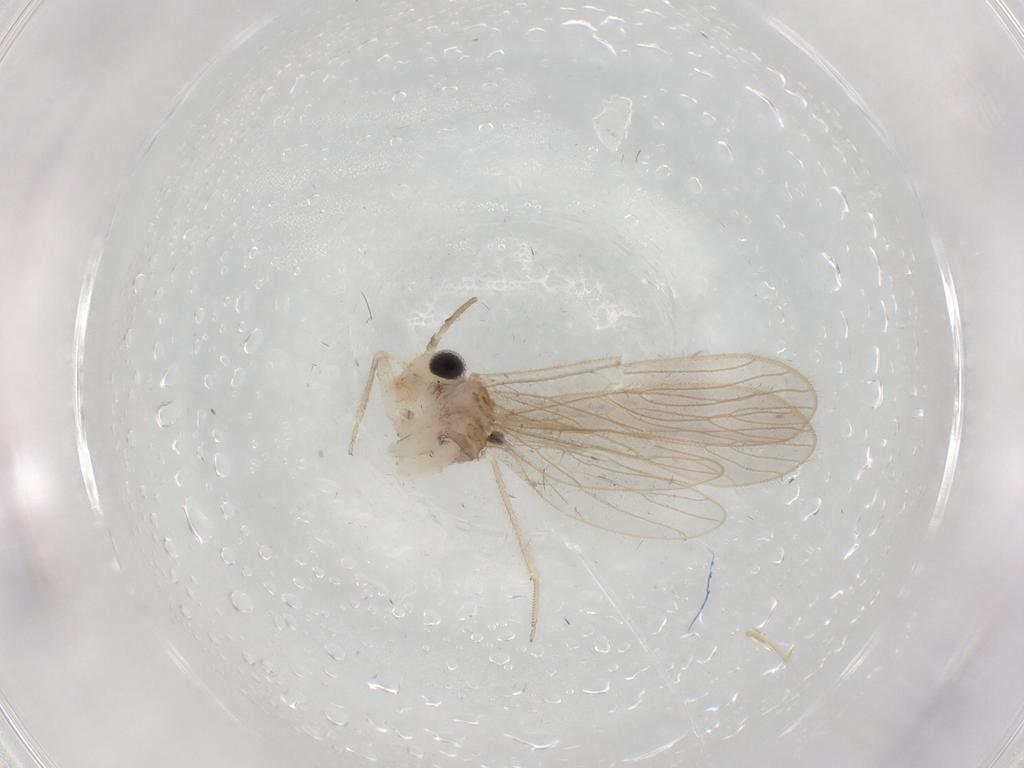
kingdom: Animalia
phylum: Arthropoda
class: Insecta
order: Psocodea
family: Cladiopsocidae
